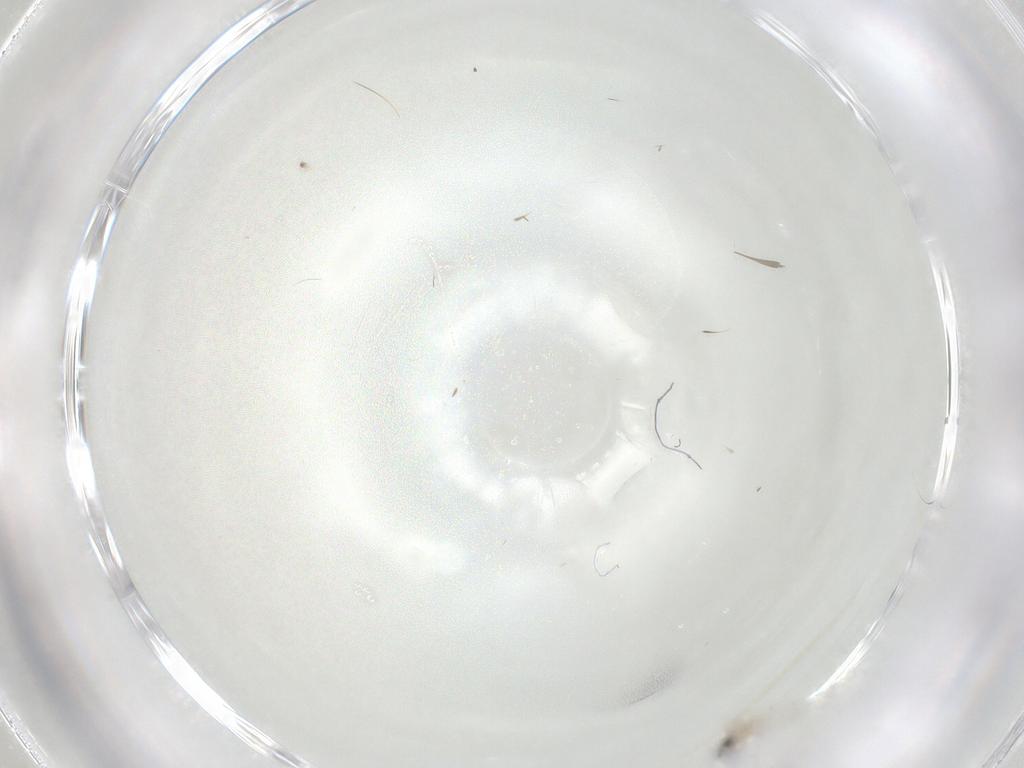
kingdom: Animalia
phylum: Arthropoda
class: Insecta
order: Diptera
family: Cecidomyiidae
